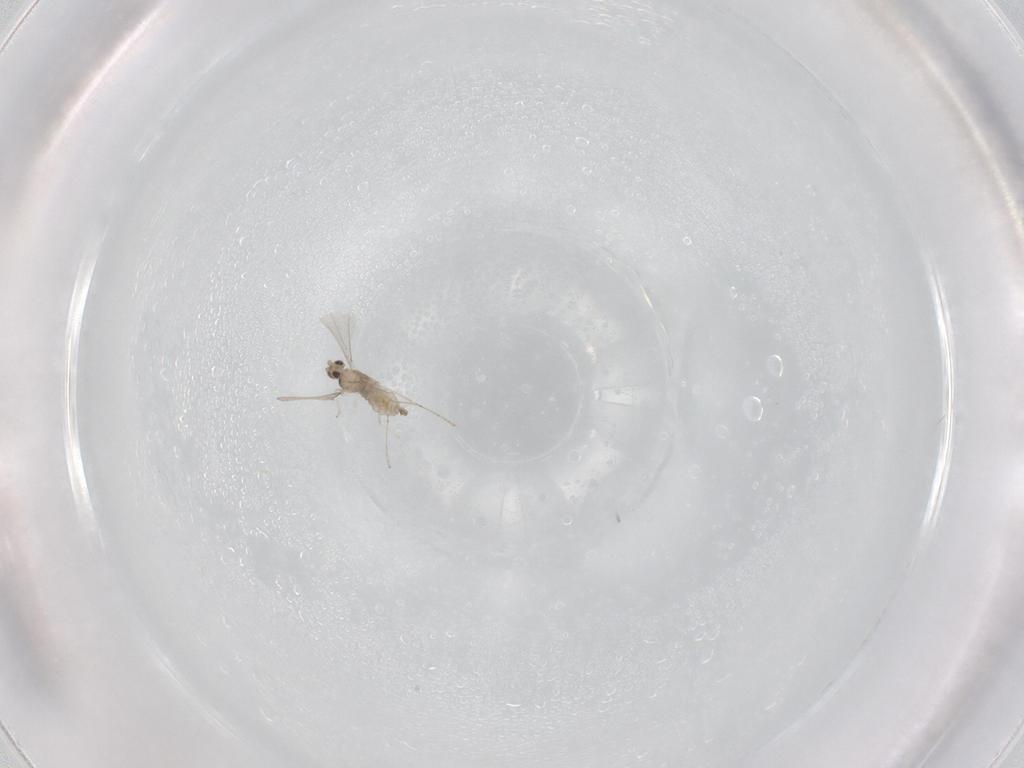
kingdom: Animalia
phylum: Arthropoda
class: Insecta
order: Diptera
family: Cecidomyiidae
